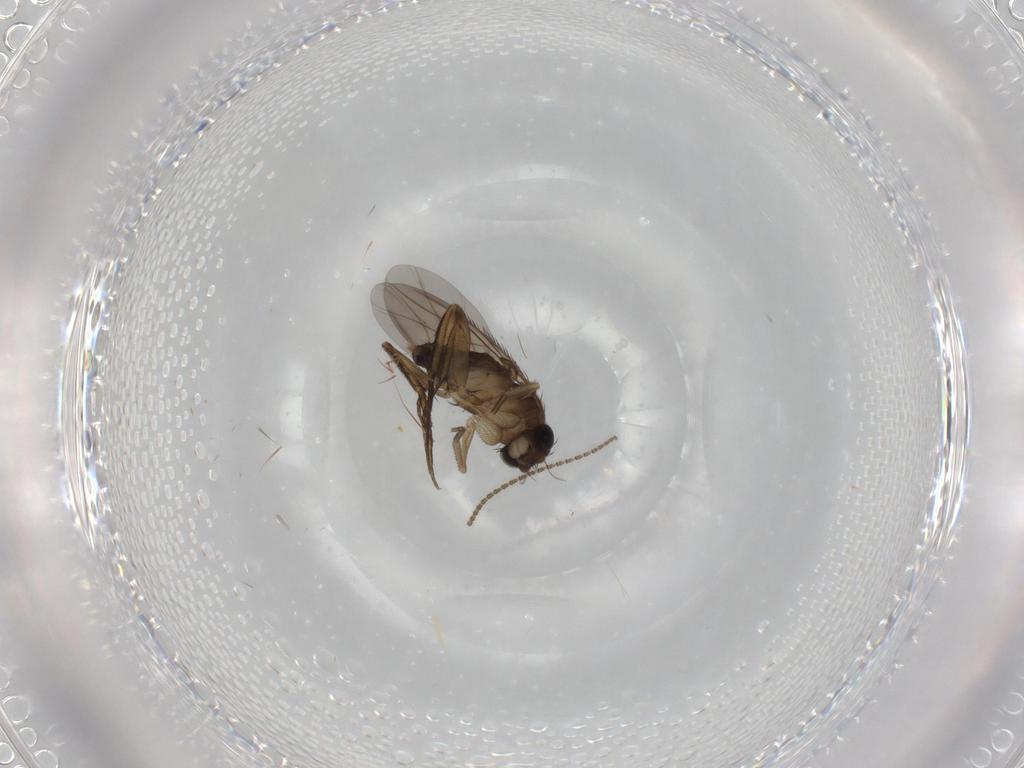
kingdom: Animalia
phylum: Arthropoda
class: Insecta
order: Diptera
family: Phoridae
